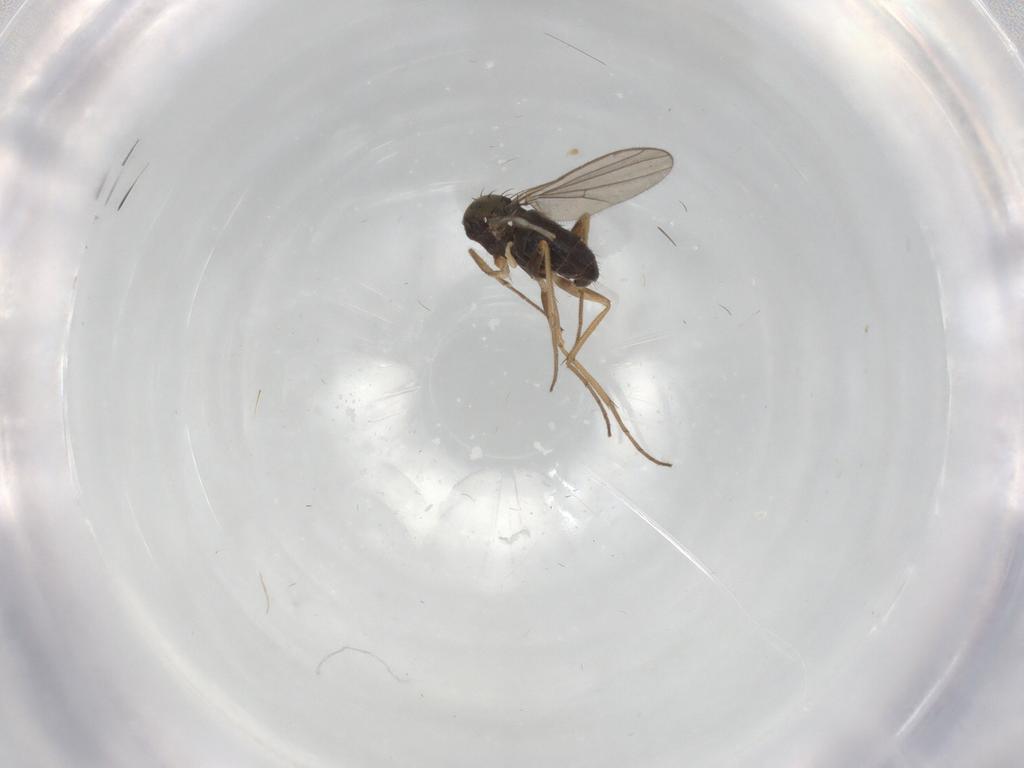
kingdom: Animalia
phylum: Arthropoda
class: Insecta
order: Diptera
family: Dolichopodidae
